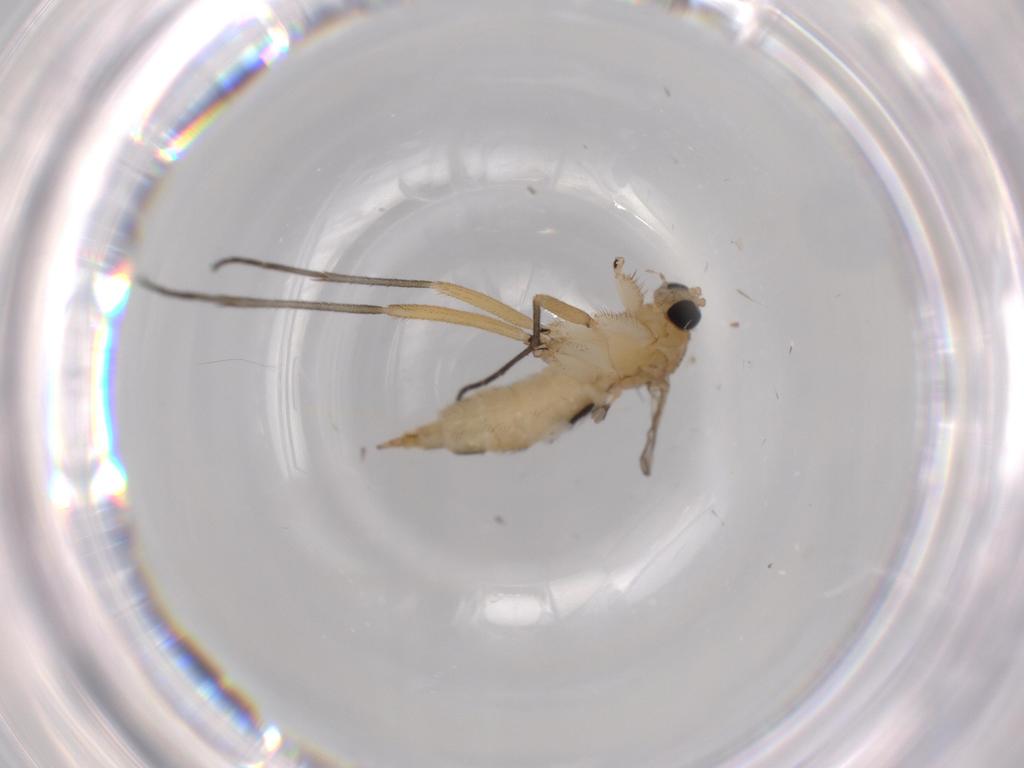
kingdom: Animalia
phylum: Arthropoda
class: Insecta
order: Diptera
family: Sciaridae
